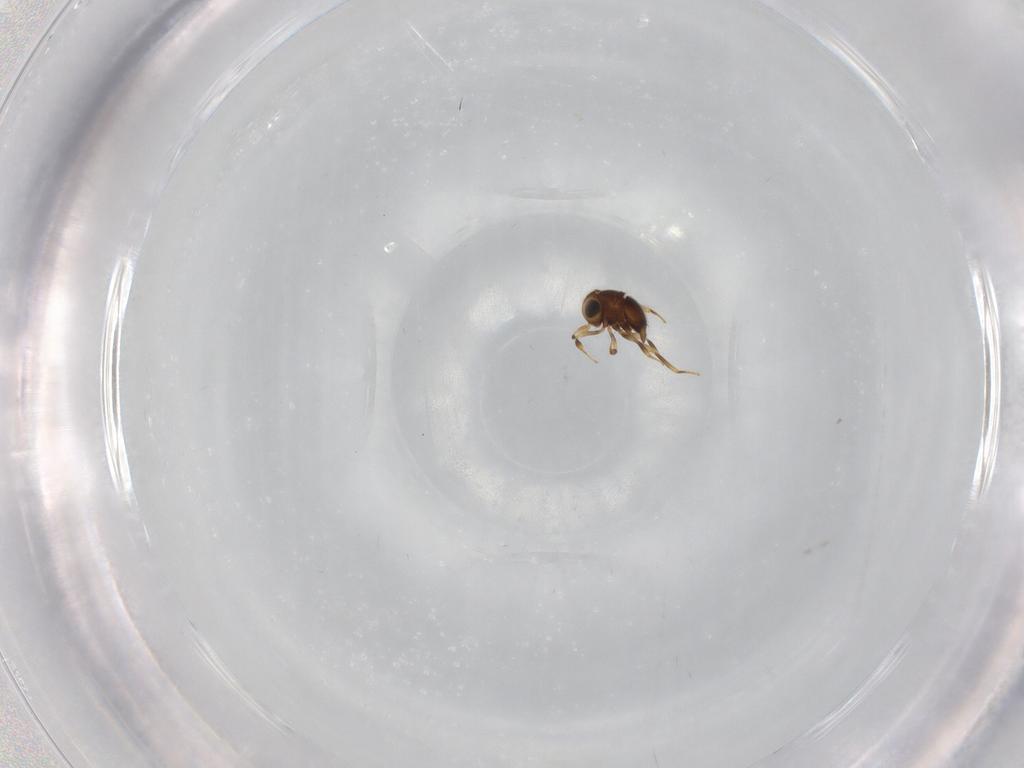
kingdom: Animalia
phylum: Arthropoda
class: Insecta
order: Hymenoptera
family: Scelionidae
